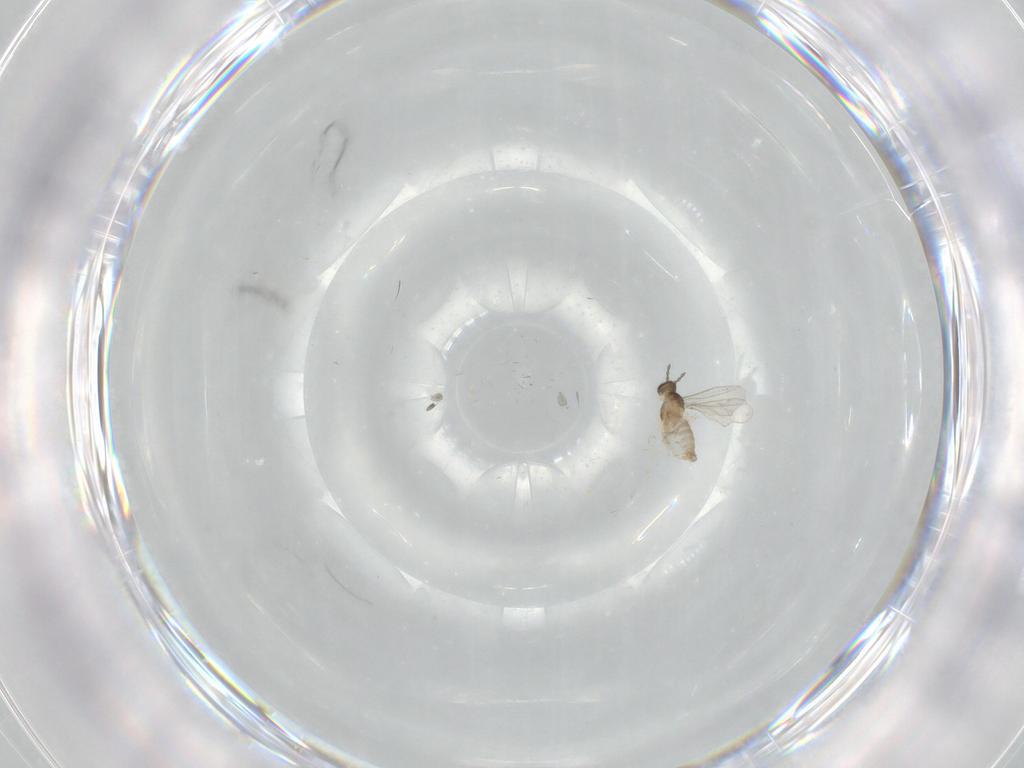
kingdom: Animalia
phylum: Arthropoda
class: Insecta
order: Diptera
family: Cecidomyiidae
